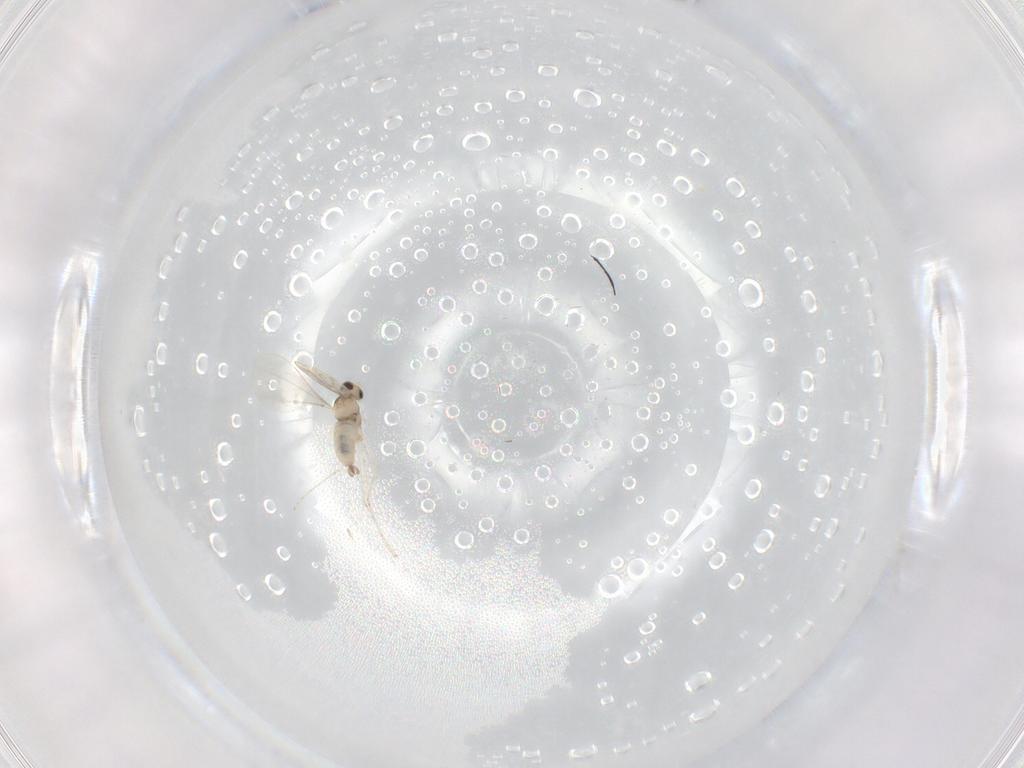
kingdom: Animalia
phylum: Arthropoda
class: Insecta
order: Diptera
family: Cecidomyiidae
